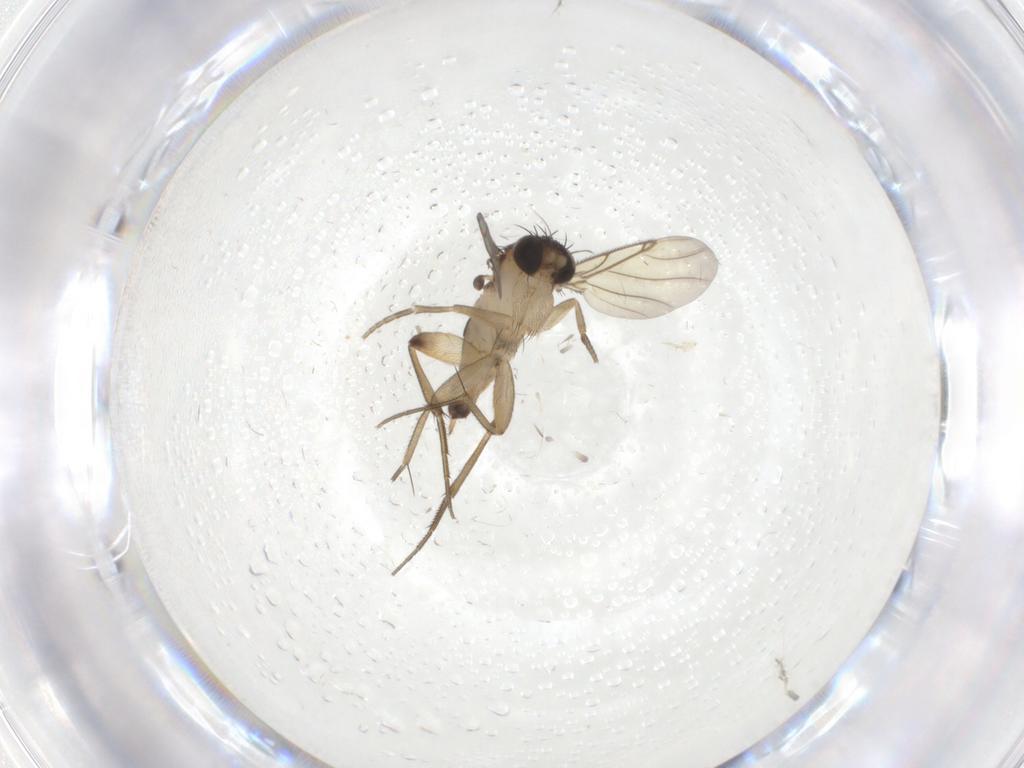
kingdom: Animalia
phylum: Arthropoda
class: Insecta
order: Diptera
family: Phoridae
